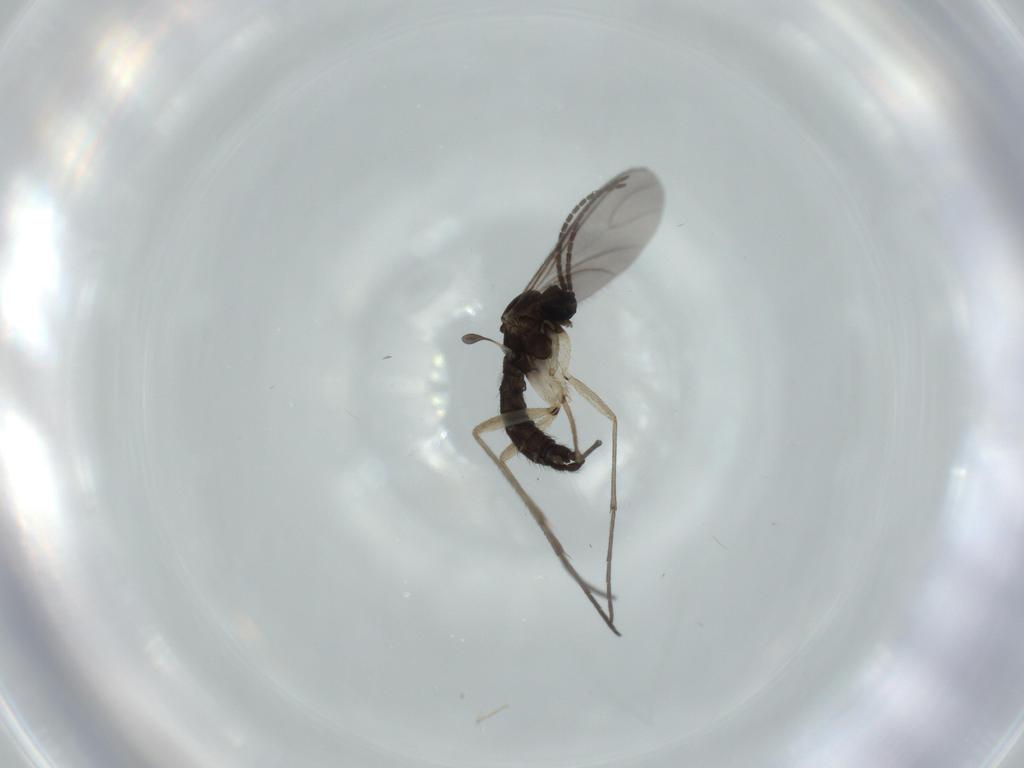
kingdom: Animalia
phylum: Arthropoda
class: Insecta
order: Diptera
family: Sciaridae
